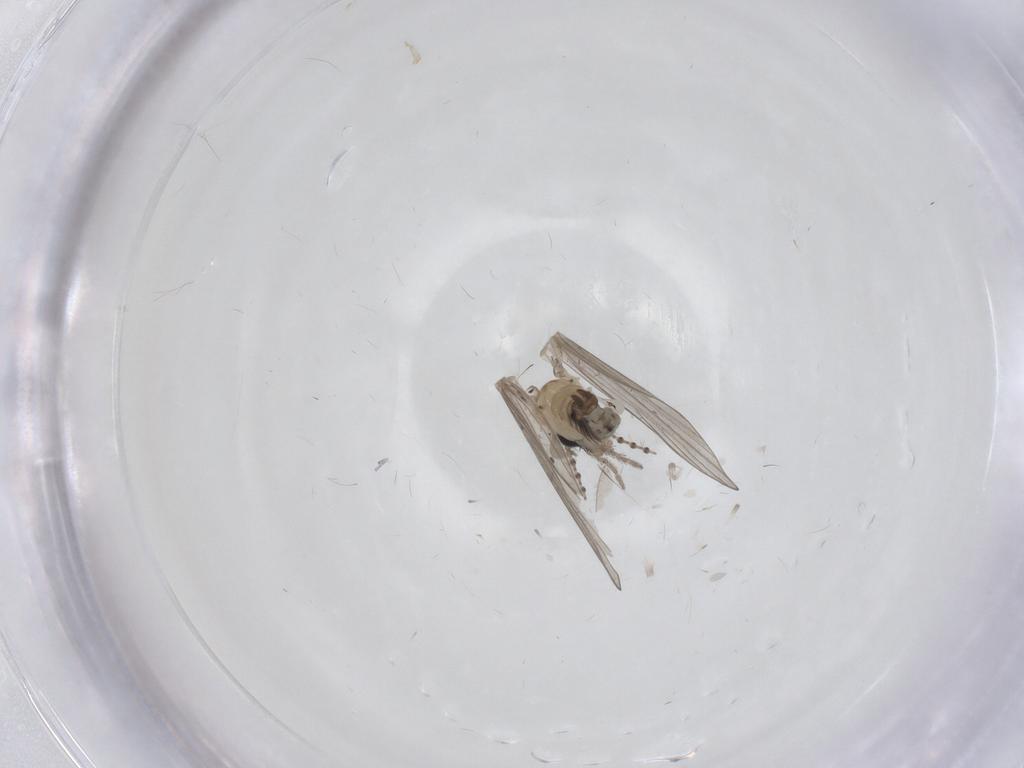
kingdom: Animalia
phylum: Arthropoda
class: Insecta
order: Diptera
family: Psychodidae
